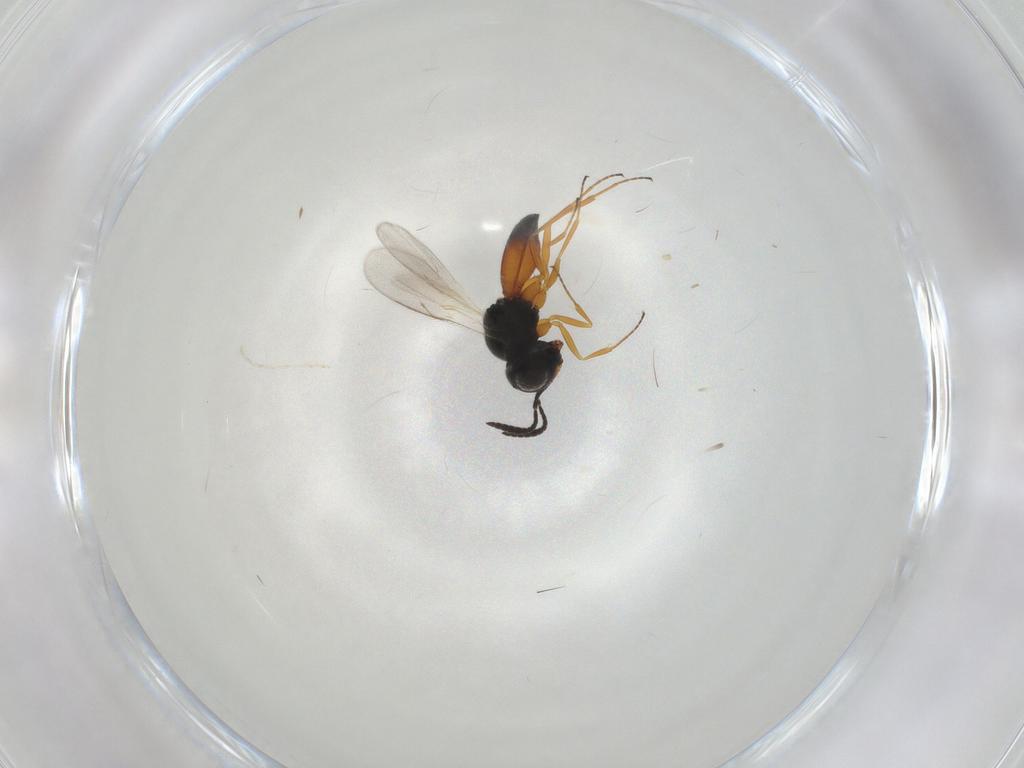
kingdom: Animalia
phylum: Arthropoda
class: Insecta
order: Hymenoptera
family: Scelionidae
